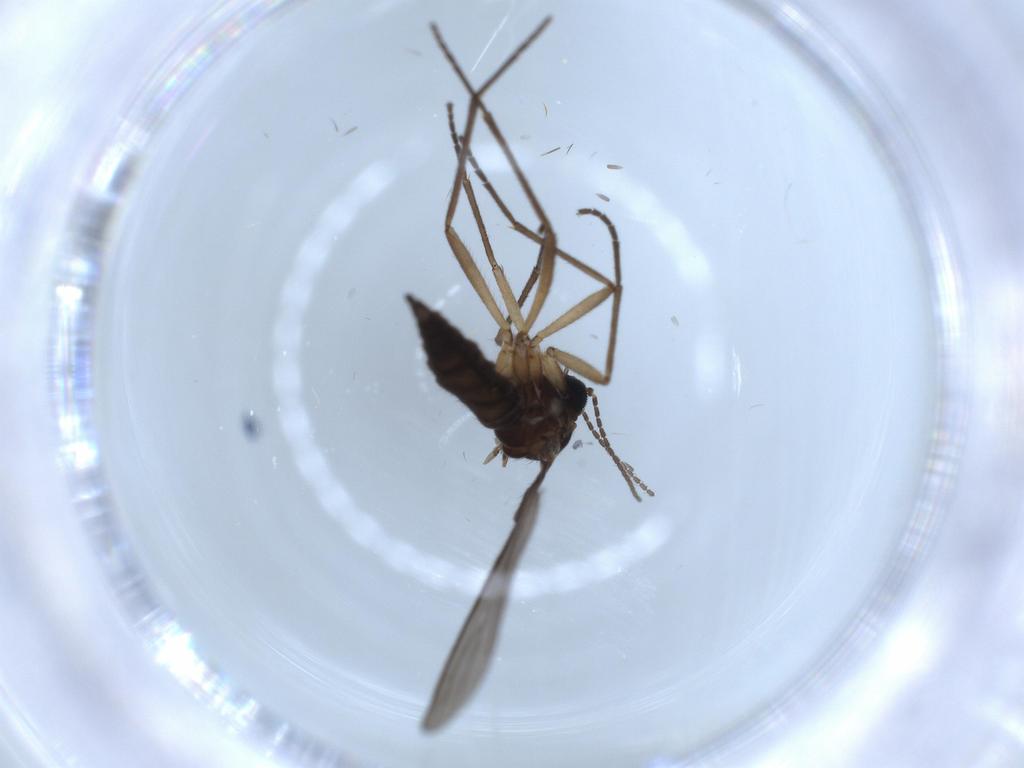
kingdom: Animalia
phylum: Arthropoda
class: Insecta
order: Diptera
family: Sciaridae
